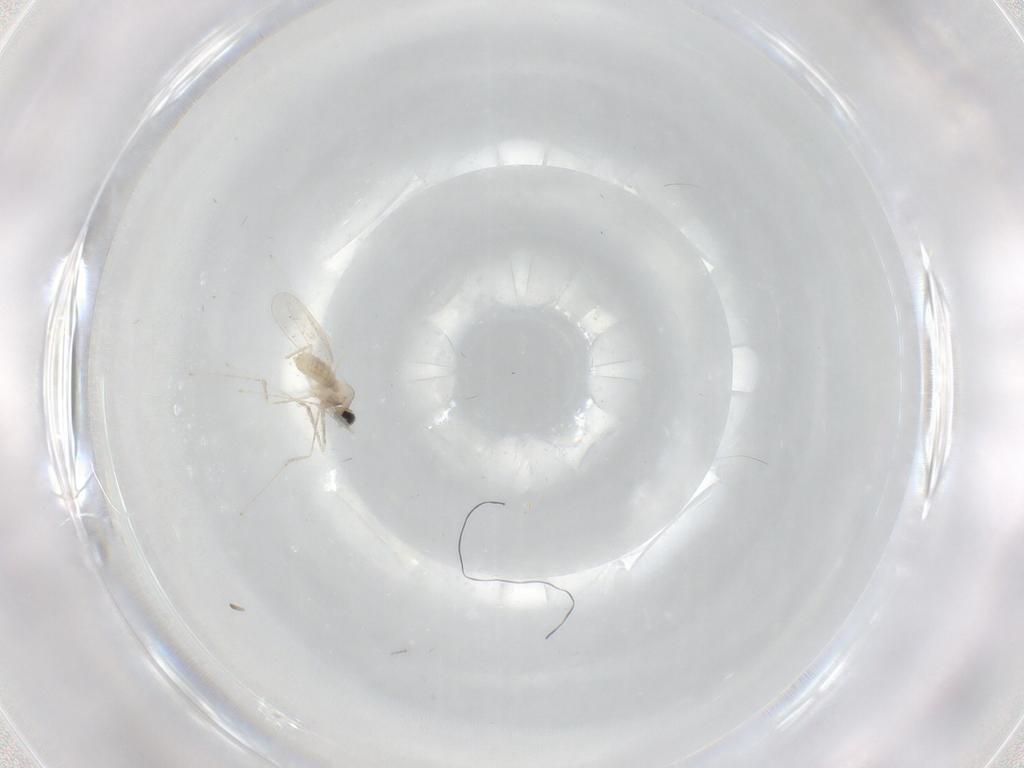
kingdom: Animalia
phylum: Arthropoda
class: Insecta
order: Diptera
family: Cecidomyiidae
